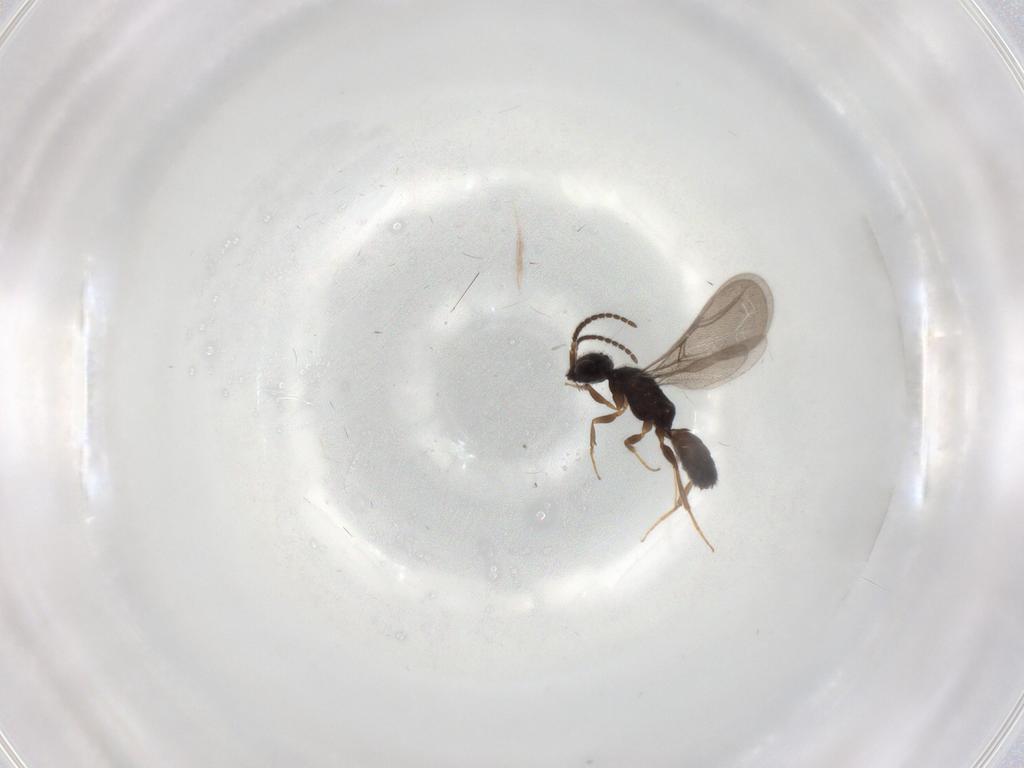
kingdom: Animalia
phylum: Arthropoda
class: Insecta
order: Hymenoptera
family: Bethylidae
